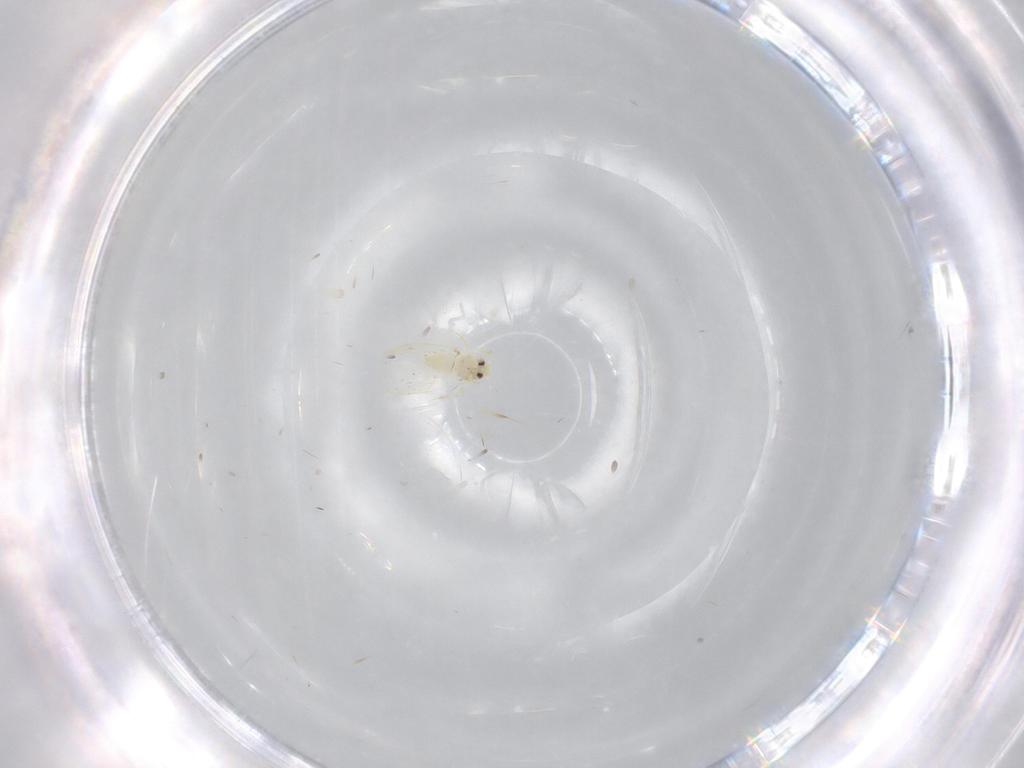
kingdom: Animalia
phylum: Arthropoda
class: Insecta
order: Hemiptera
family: Aleyrodidae
